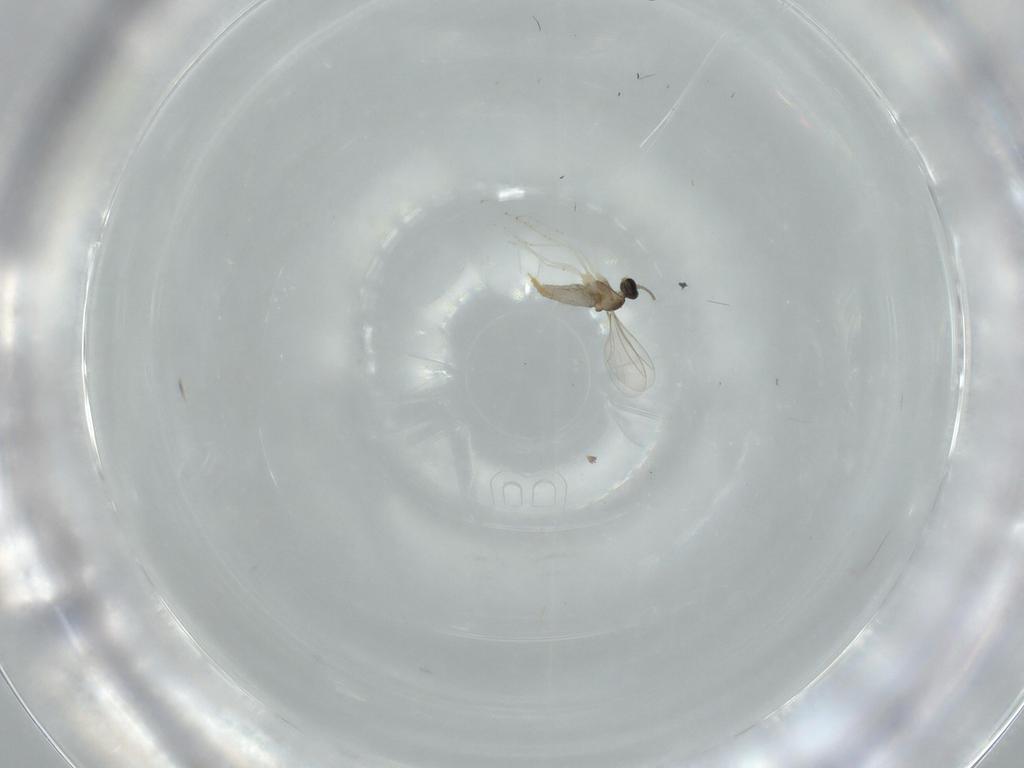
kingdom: Animalia
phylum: Arthropoda
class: Insecta
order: Diptera
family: Cecidomyiidae
